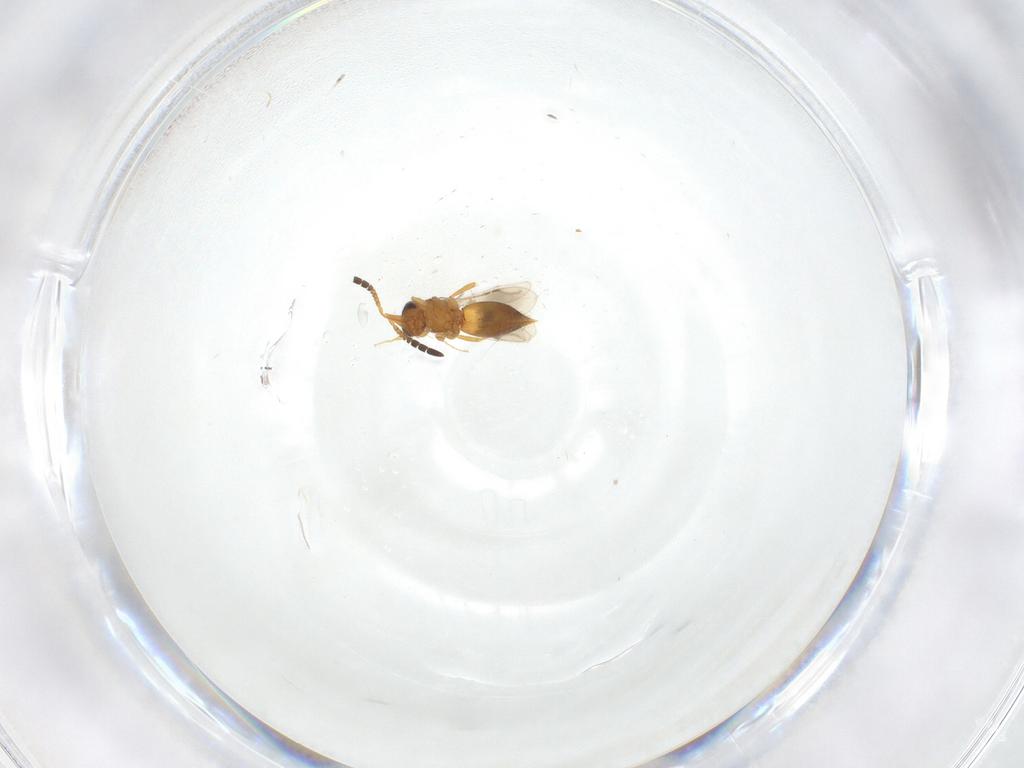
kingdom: Animalia
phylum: Arthropoda
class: Insecta
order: Hymenoptera
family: Ceraphronidae
